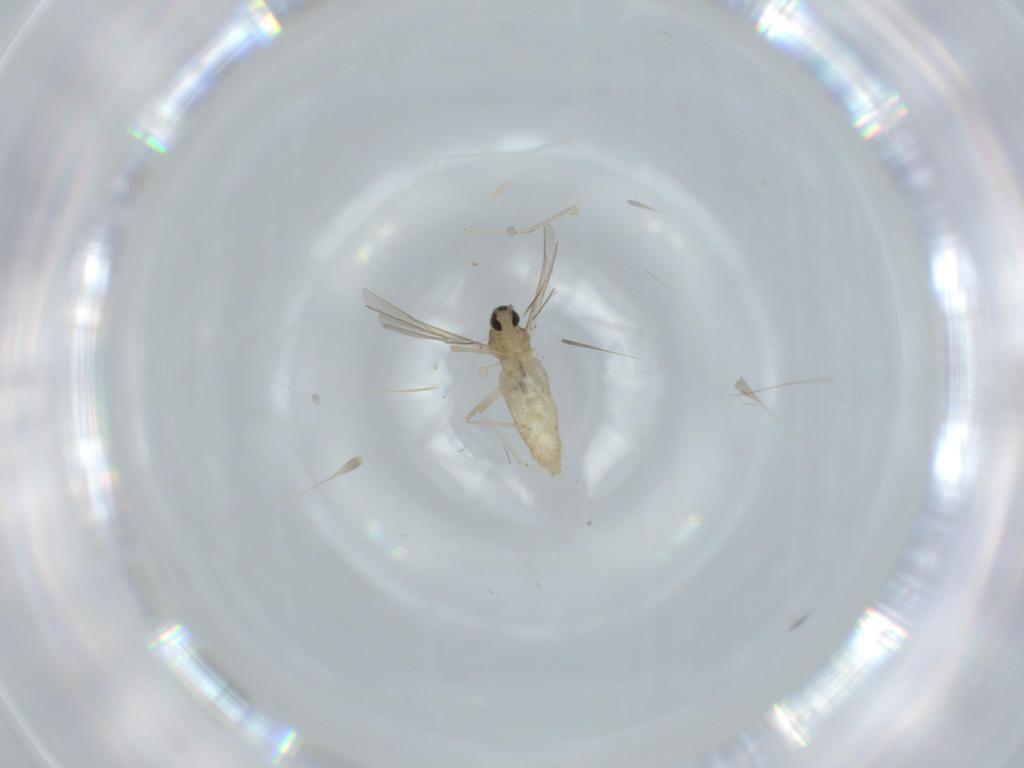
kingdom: Animalia
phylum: Arthropoda
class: Insecta
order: Diptera
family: Cecidomyiidae
